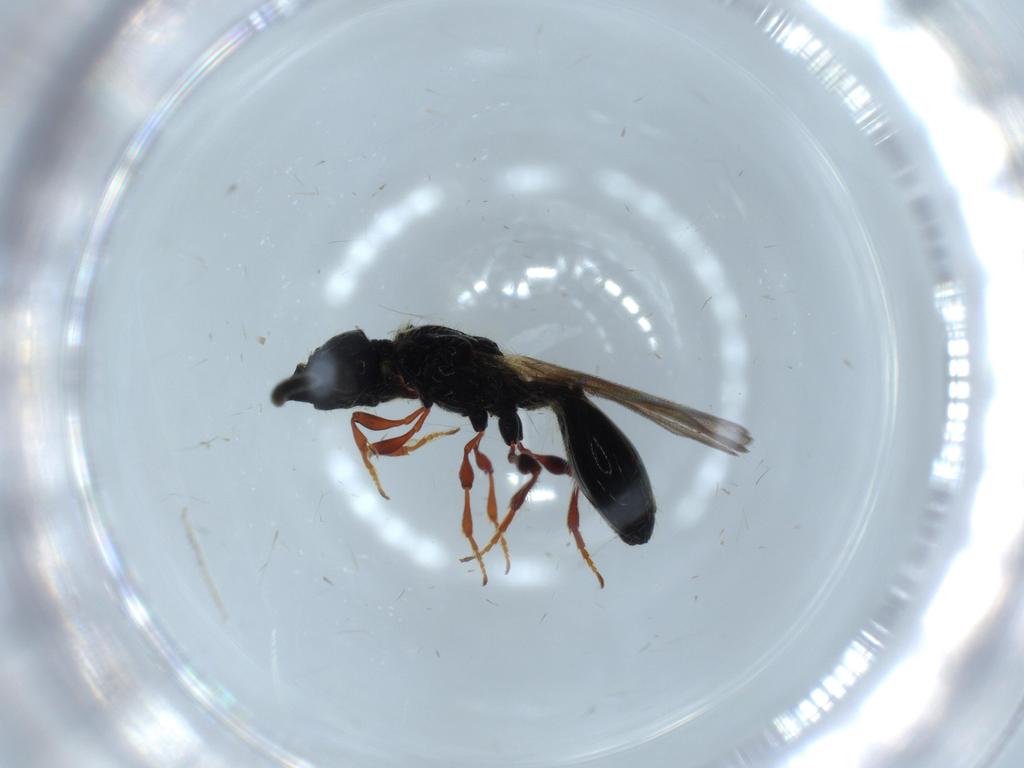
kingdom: Animalia
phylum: Arthropoda
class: Insecta
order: Hymenoptera
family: Bethylidae
